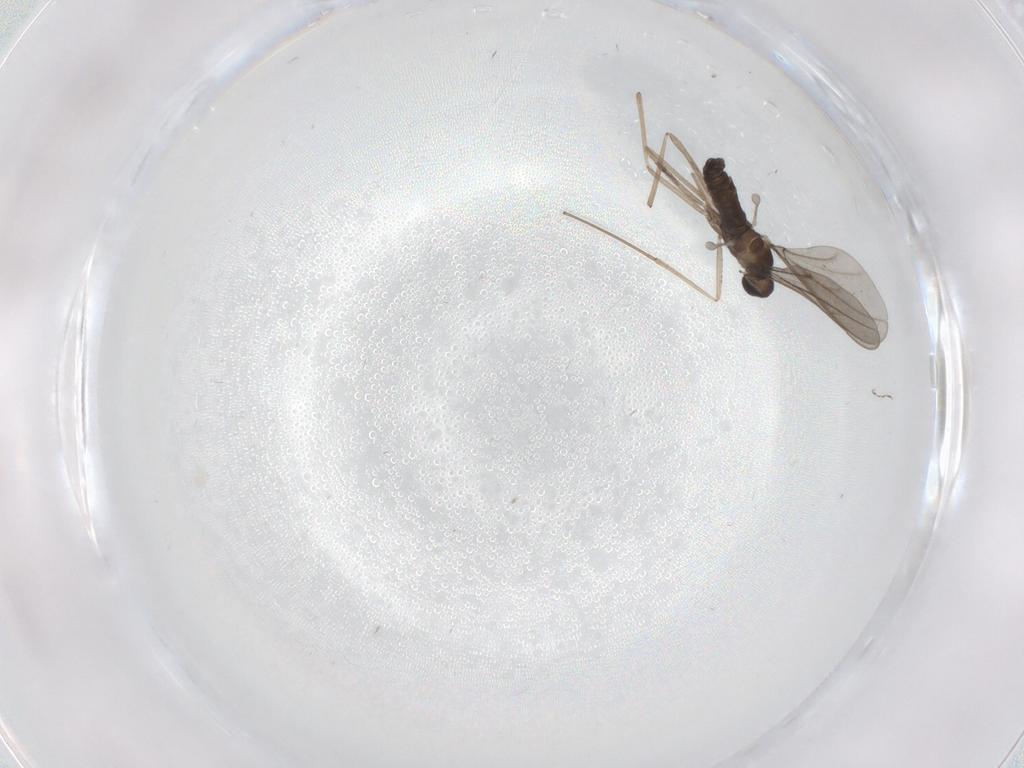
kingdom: Animalia
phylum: Arthropoda
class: Insecta
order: Diptera
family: Cecidomyiidae
